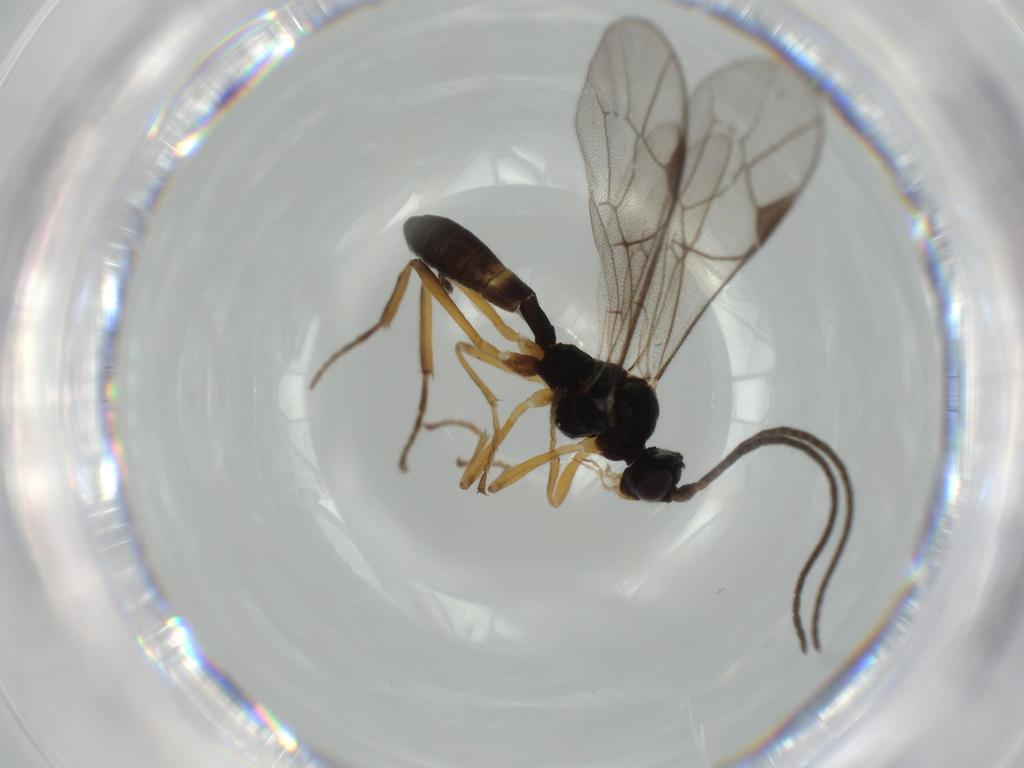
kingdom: Animalia
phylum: Arthropoda
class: Insecta
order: Hymenoptera
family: Ichneumonidae
